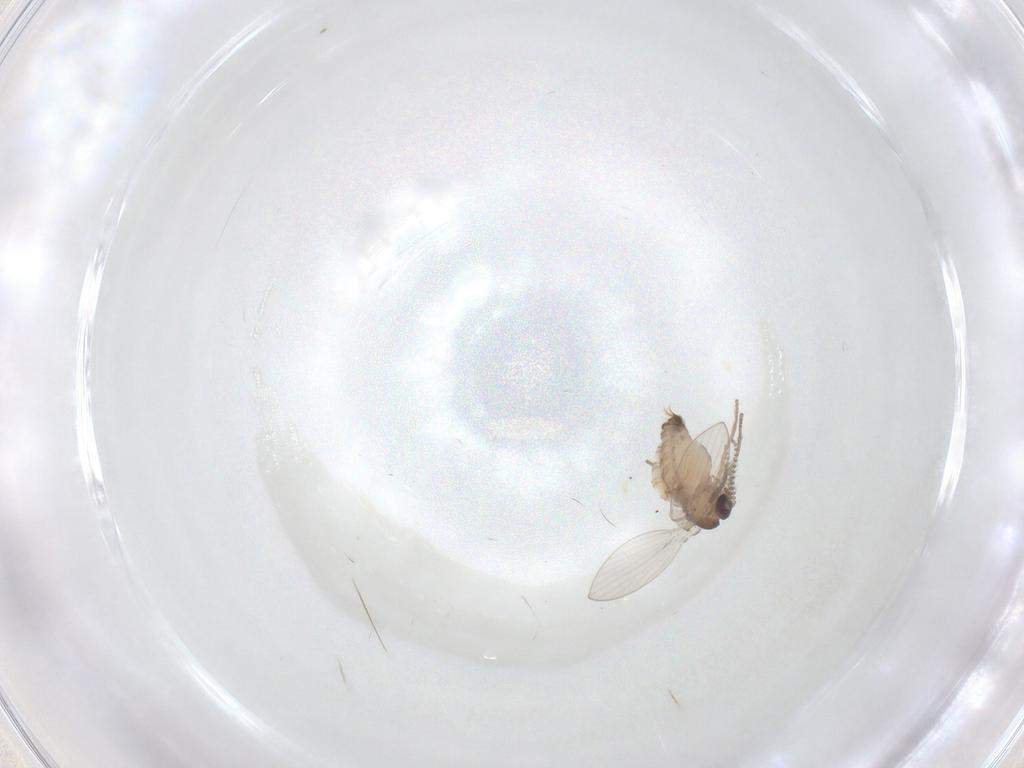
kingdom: Animalia
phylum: Arthropoda
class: Insecta
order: Diptera
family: Psychodidae
